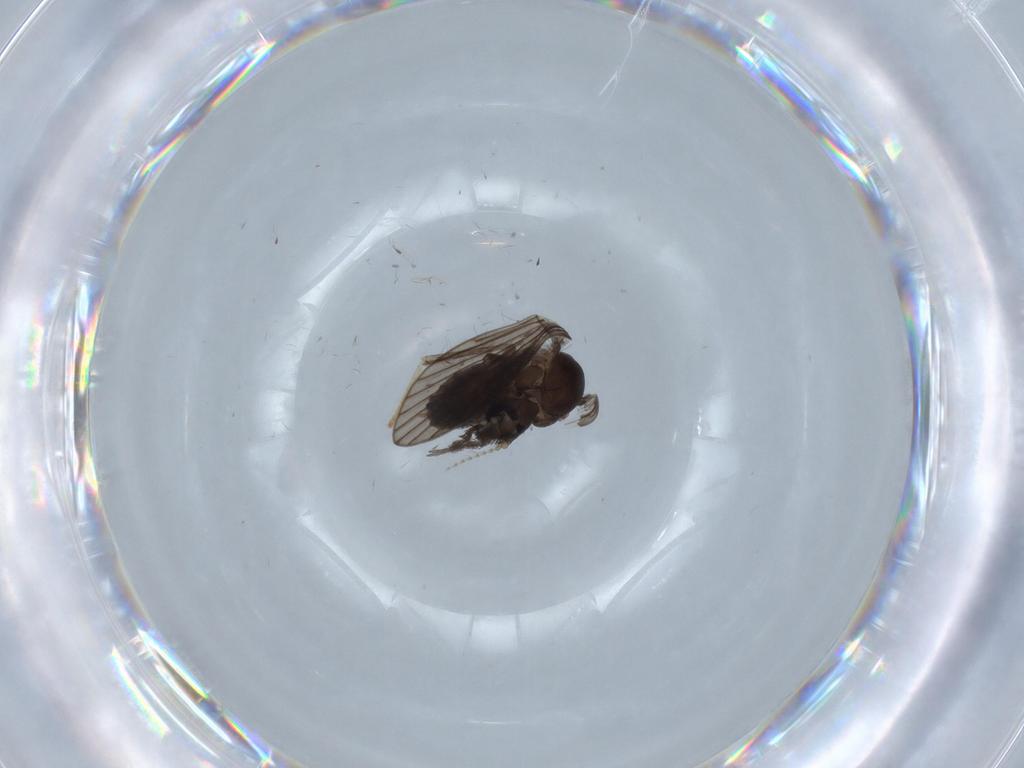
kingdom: Animalia
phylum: Arthropoda
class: Insecta
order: Diptera
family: Psychodidae
